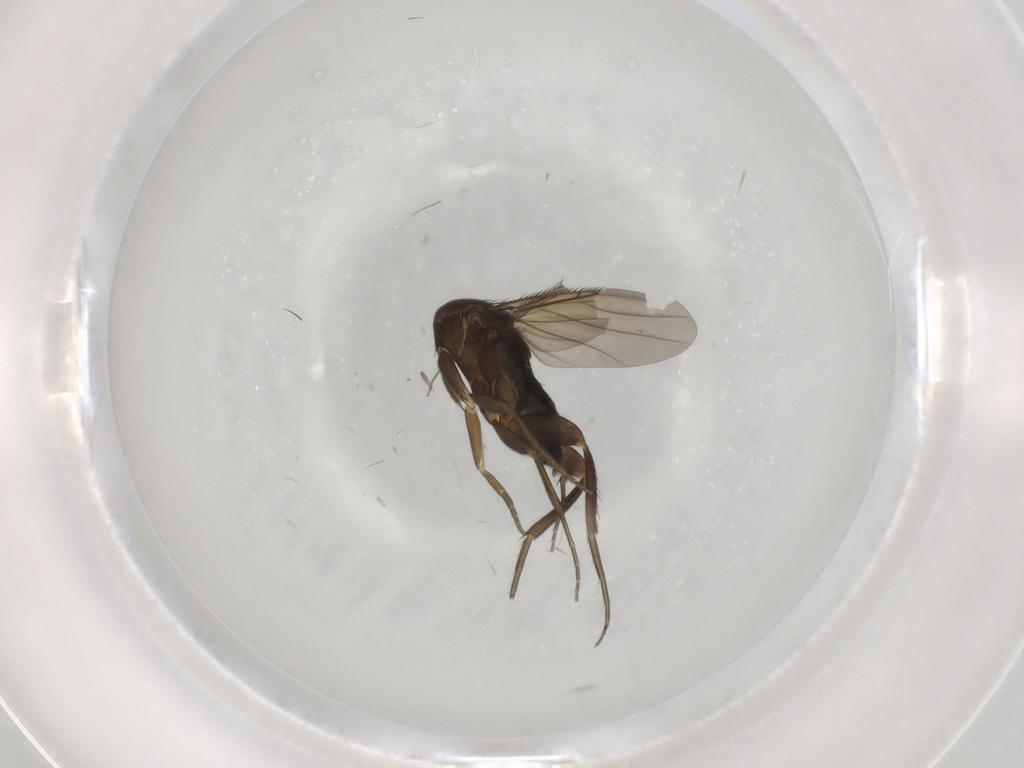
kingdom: Animalia
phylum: Arthropoda
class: Insecta
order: Diptera
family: Phoridae
